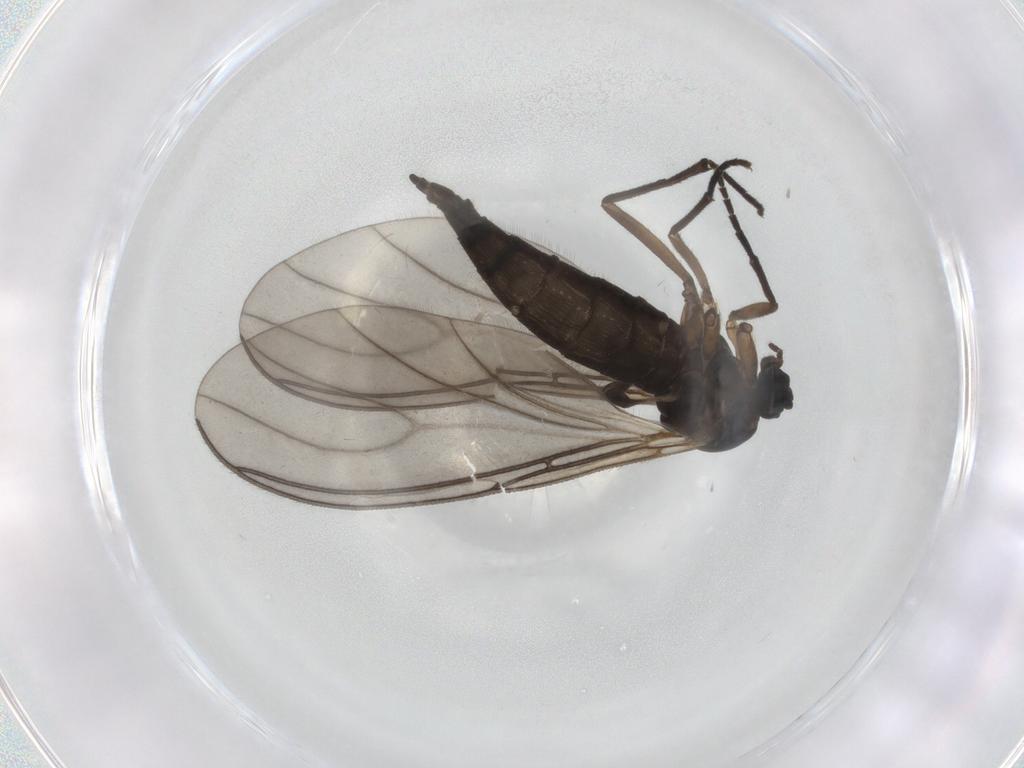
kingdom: Animalia
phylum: Arthropoda
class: Insecta
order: Diptera
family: Sciaridae
